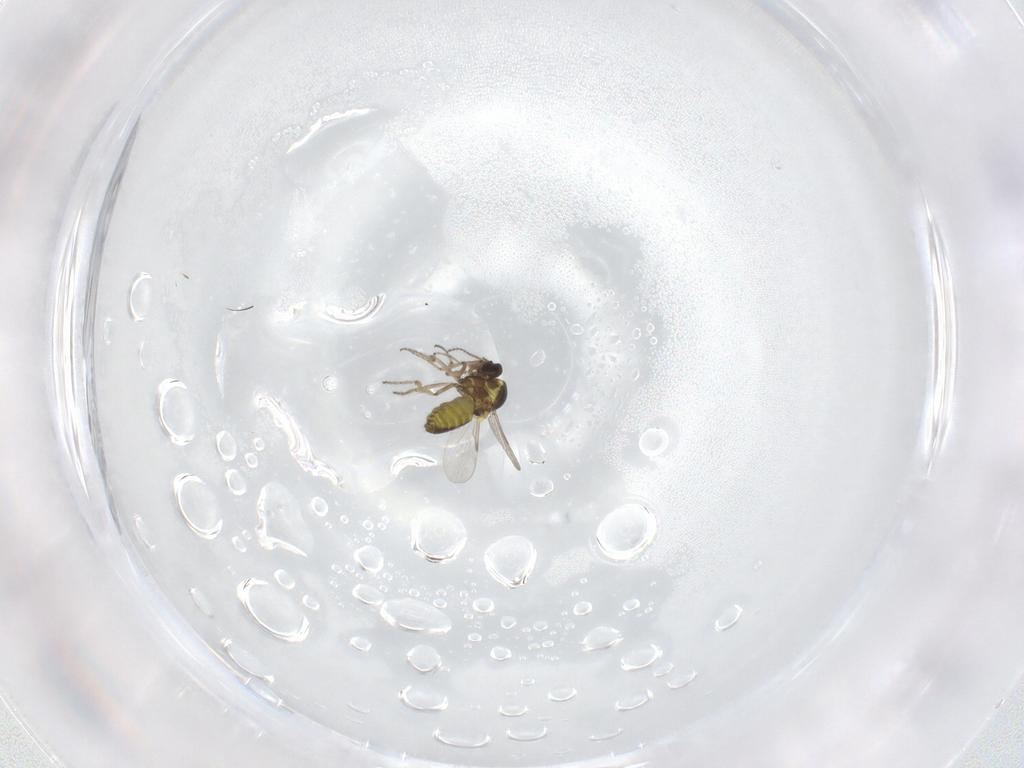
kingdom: Animalia
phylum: Arthropoda
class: Insecta
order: Diptera
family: Ceratopogonidae
